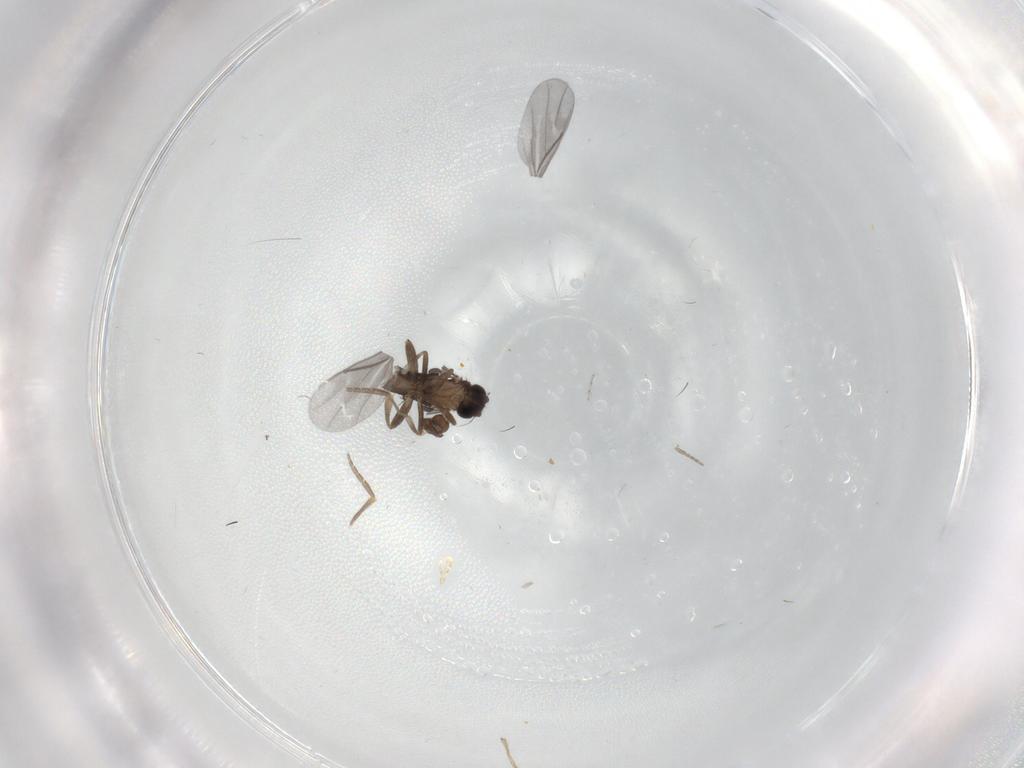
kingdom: Animalia
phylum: Arthropoda
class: Insecta
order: Diptera
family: Cecidomyiidae
